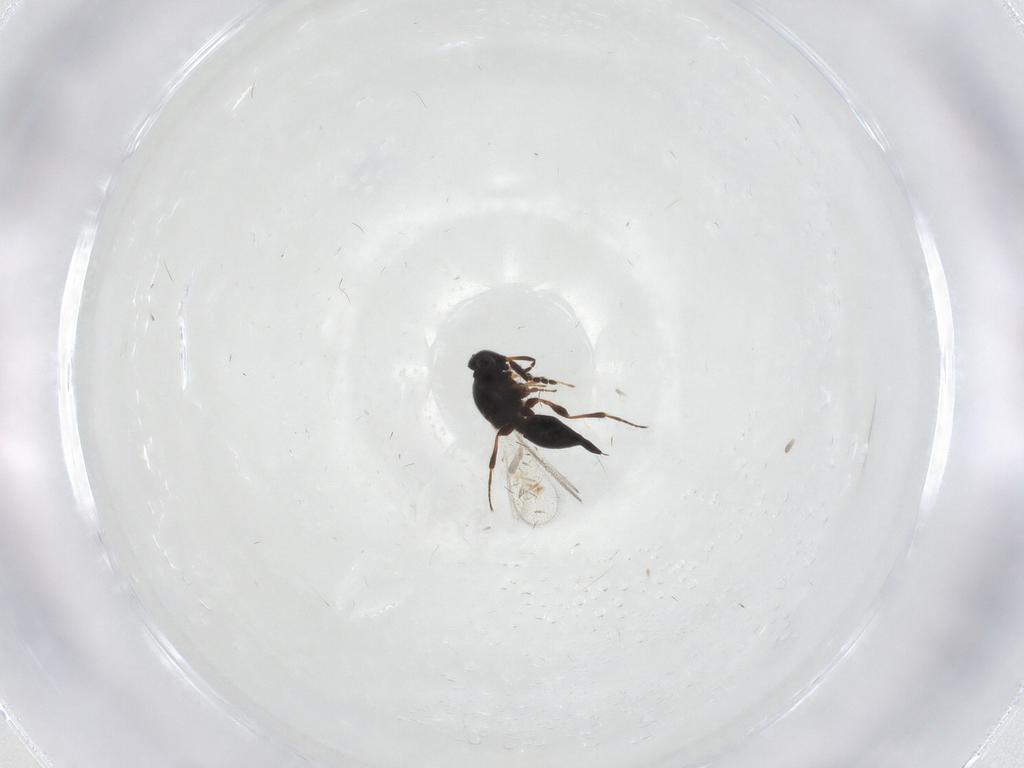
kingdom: Animalia
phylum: Arthropoda
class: Insecta
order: Hymenoptera
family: Platygastridae
